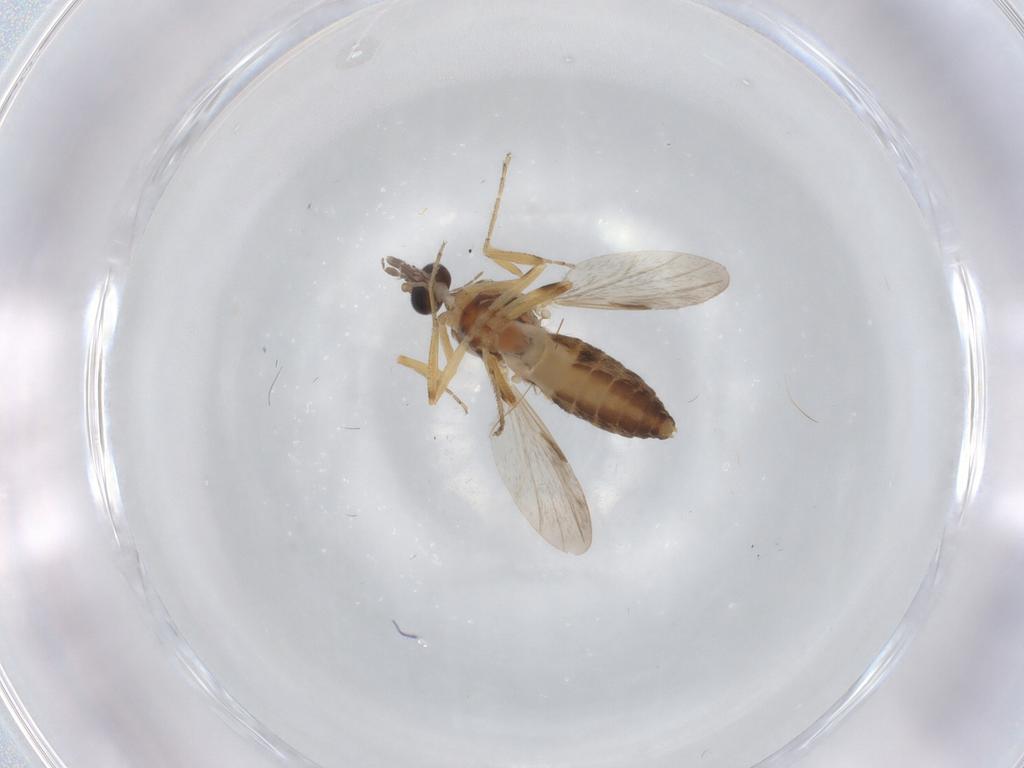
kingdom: Animalia
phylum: Arthropoda
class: Insecta
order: Diptera
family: Ceratopogonidae
